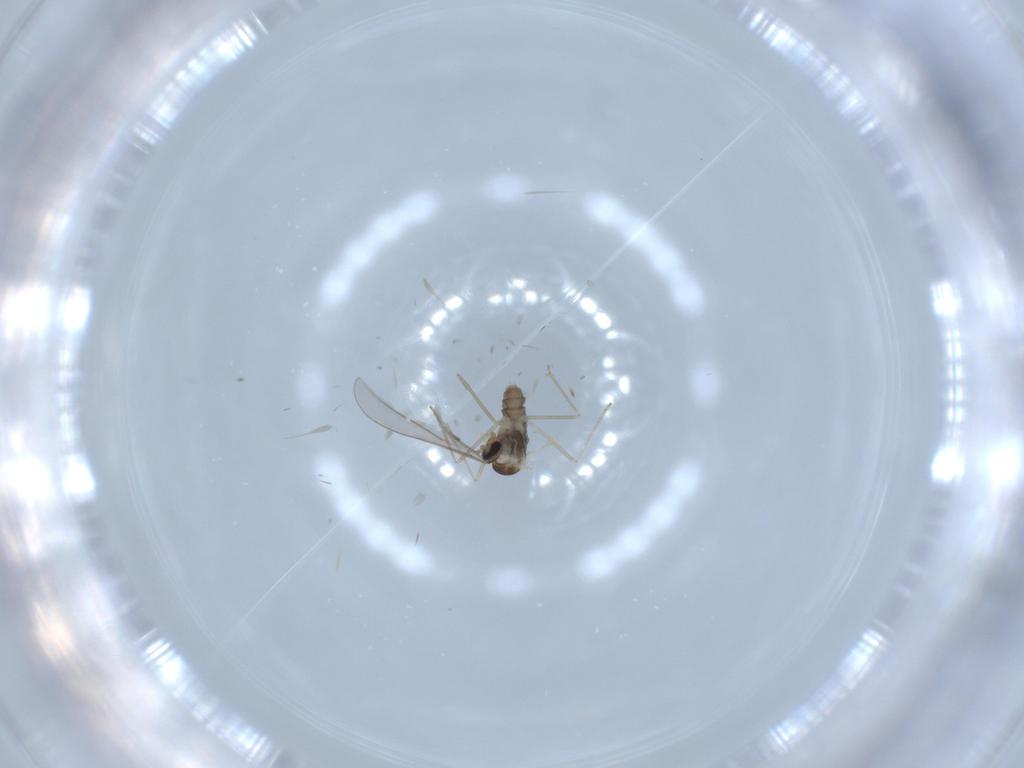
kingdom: Animalia
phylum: Arthropoda
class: Insecta
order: Diptera
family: Cecidomyiidae
